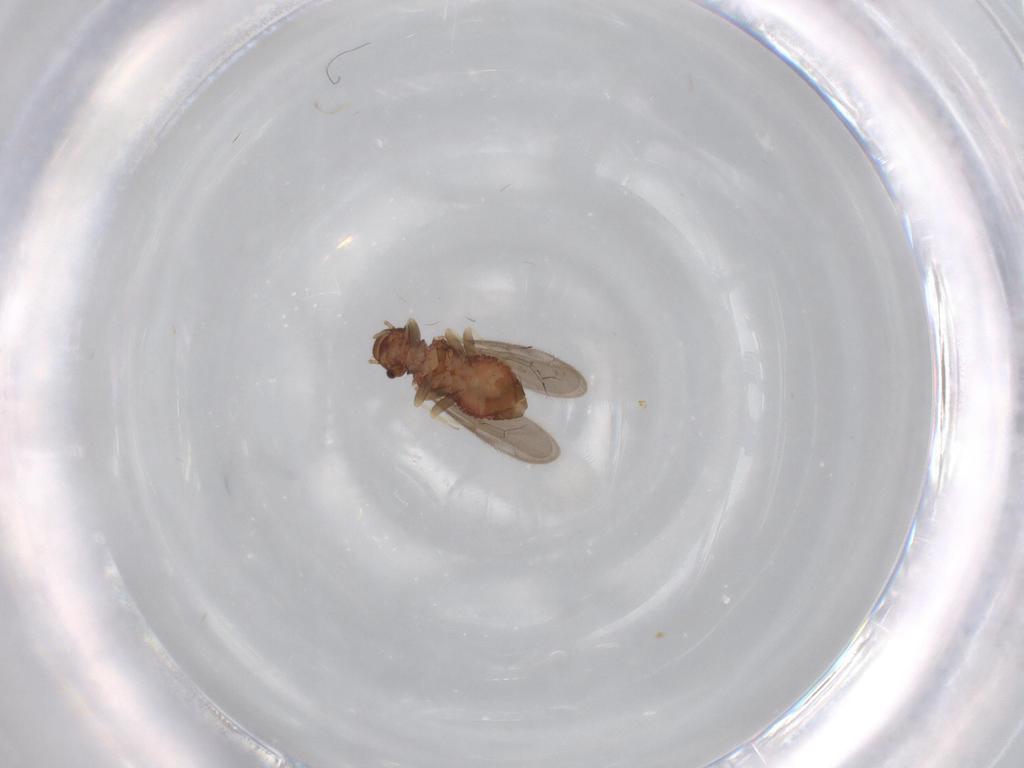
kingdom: Animalia
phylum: Arthropoda
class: Insecta
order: Psocodea
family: Archipsocidae
